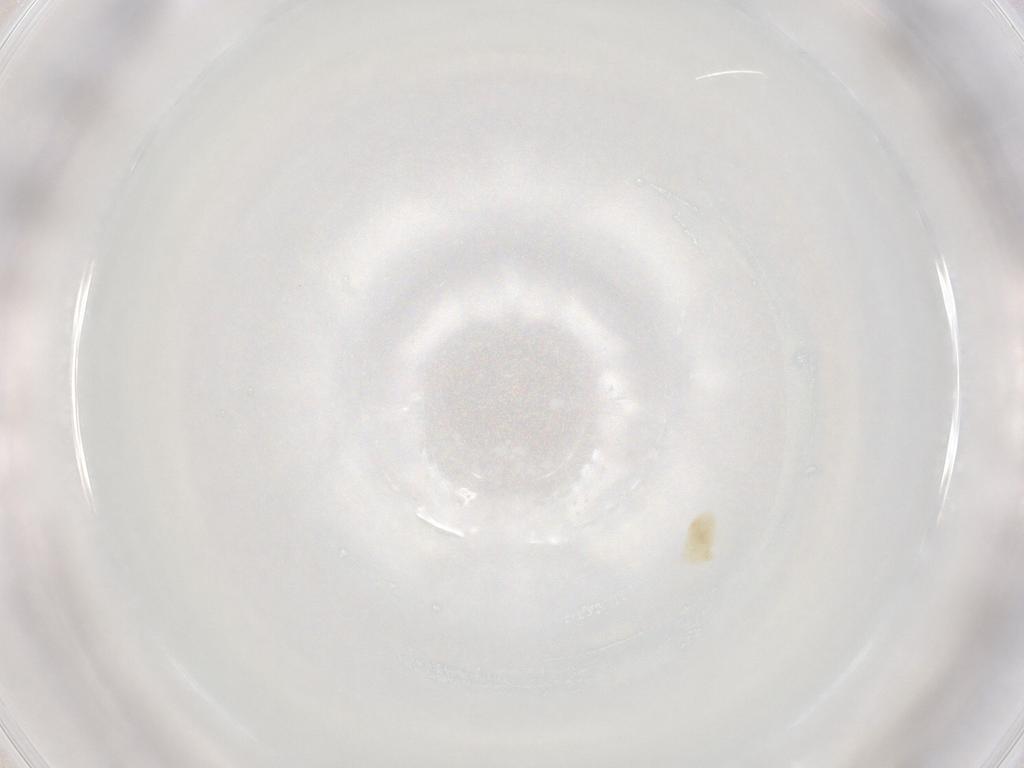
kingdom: Animalia
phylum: Arthropoda
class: Arachnida
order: Trombidiformes
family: Eupodidae
